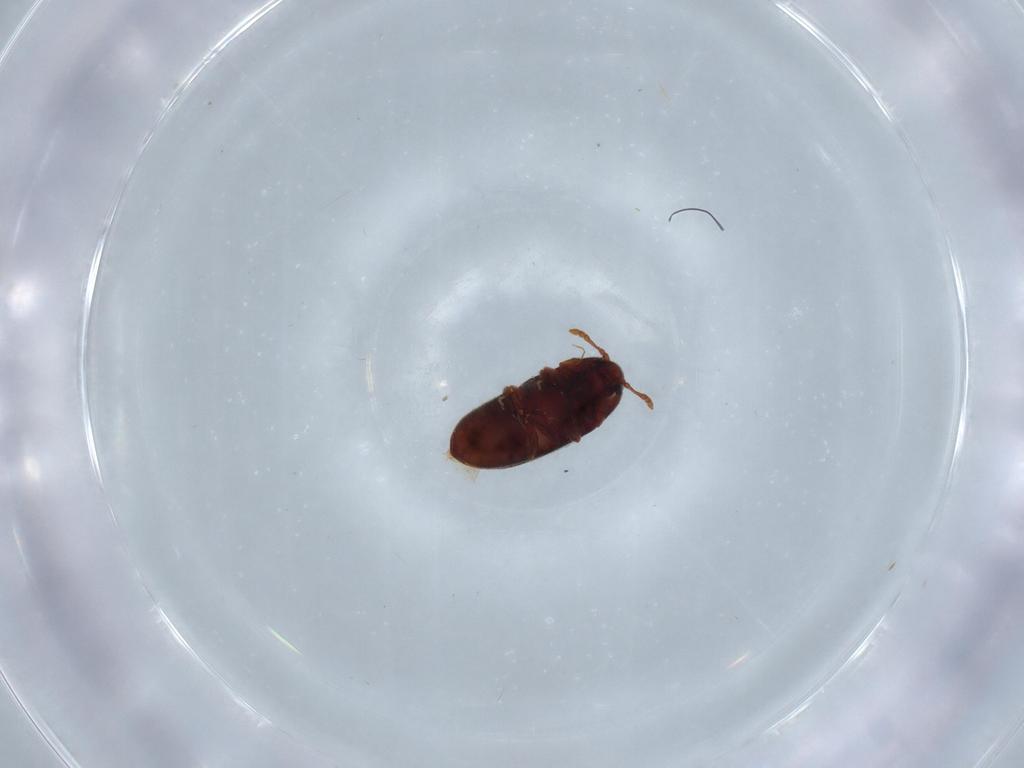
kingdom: Animalia
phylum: Arthropoda
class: Insecta
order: Coleoptera
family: Throscidae
